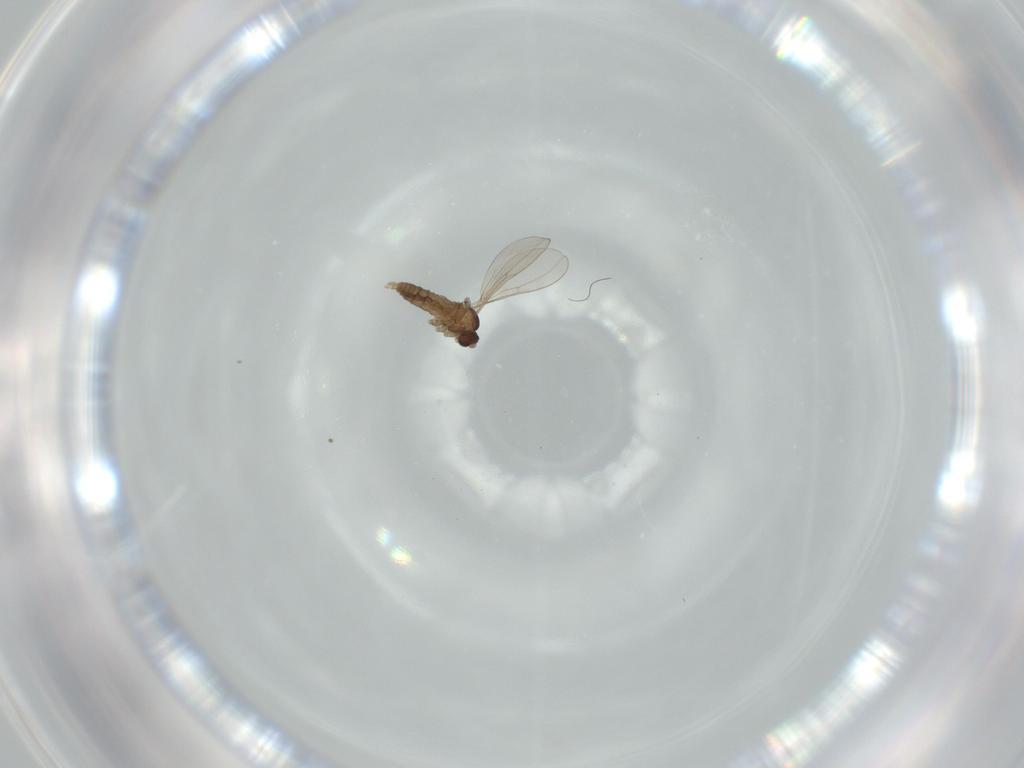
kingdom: Animalia
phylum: Arthropoda
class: Insecta
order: Diptera
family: Cecidomyiidae
